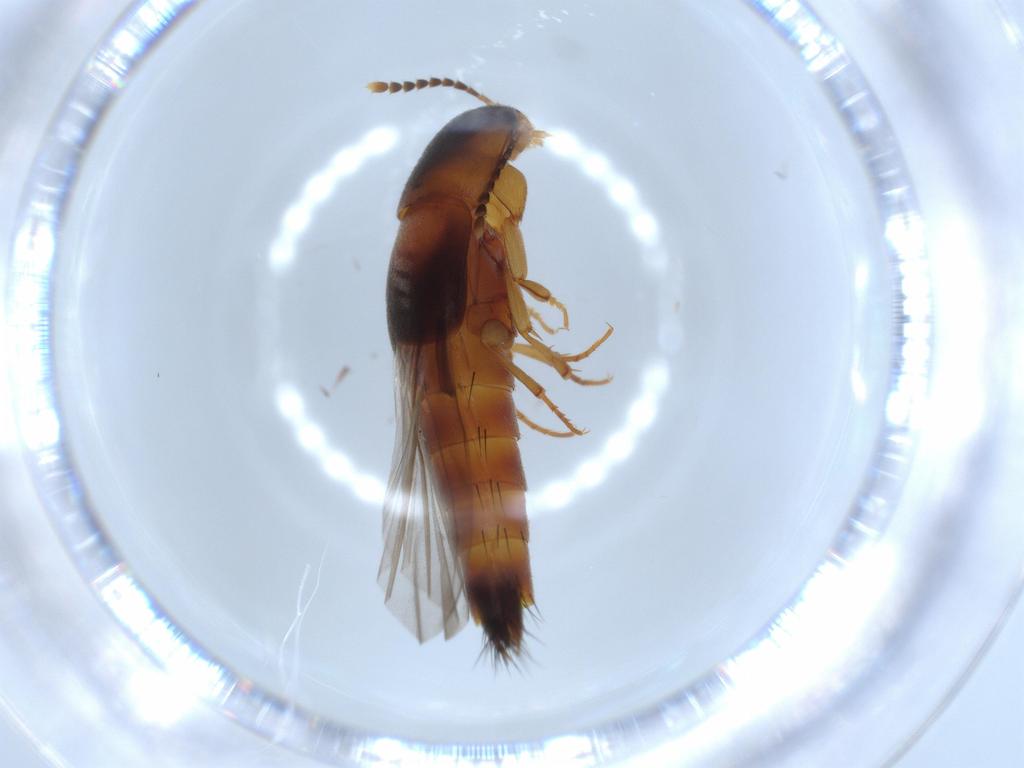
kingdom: Animalia
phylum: Arthropoda
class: Insecta
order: Coleoptera
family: Staphylinidae
